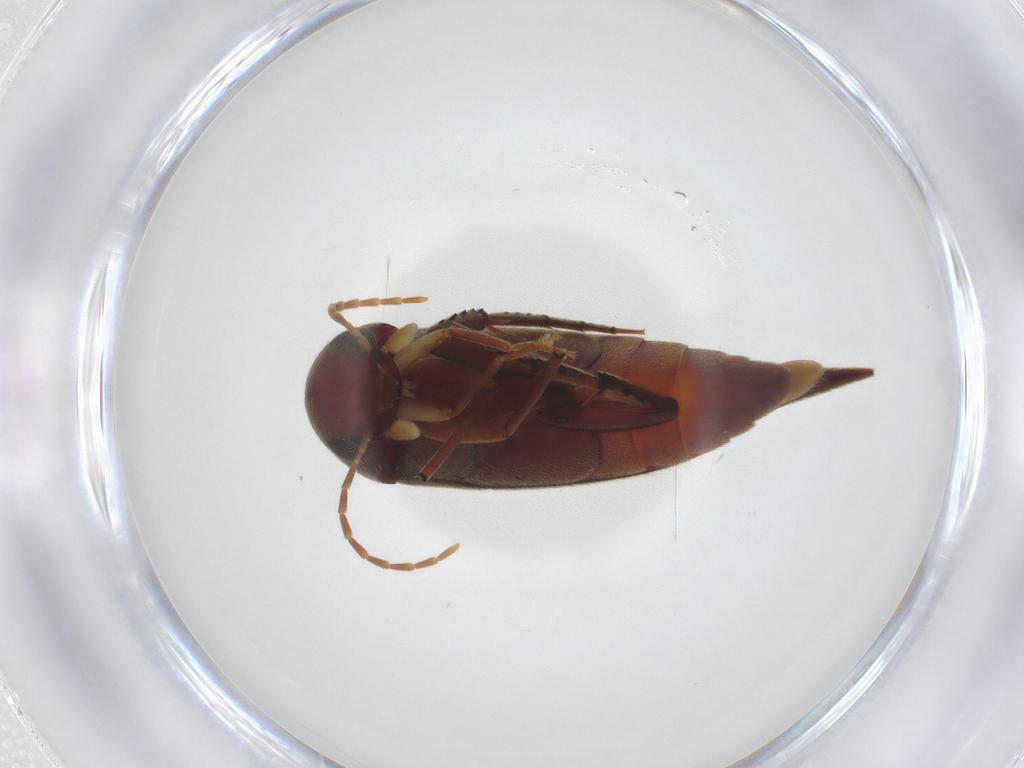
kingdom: Animalia
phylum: Arthropoda
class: Insecta
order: Coleoptera
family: Mordellidae
